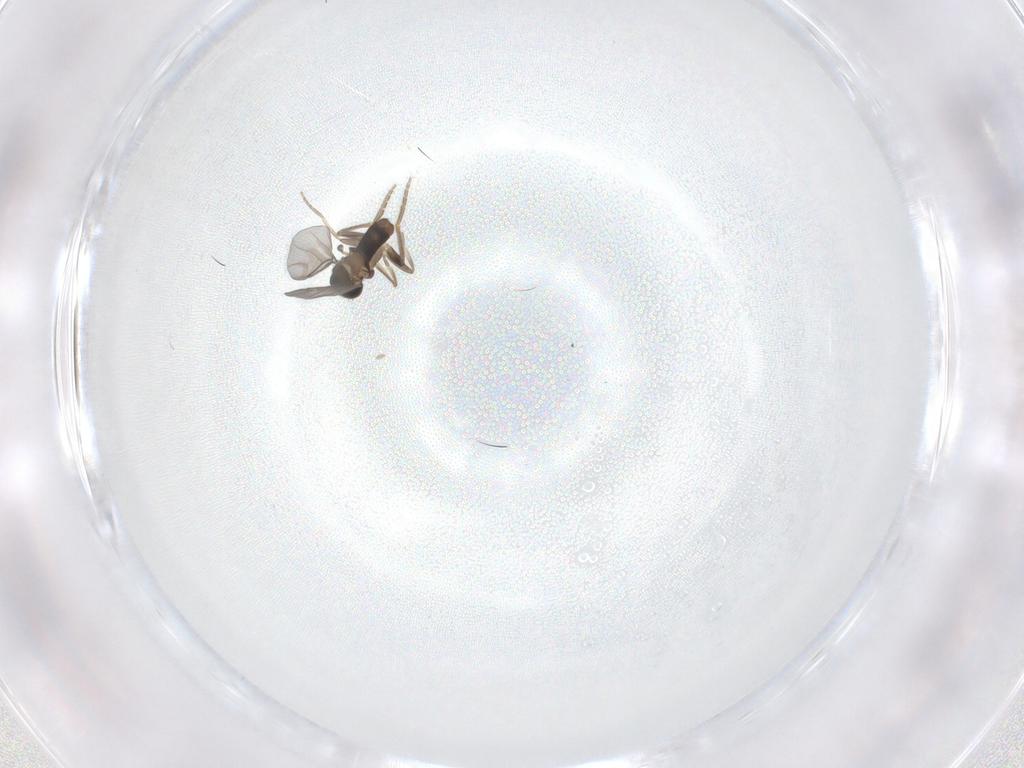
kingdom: Animalia
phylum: Arthropoda
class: Insecta
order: Diptera
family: Phoridae
